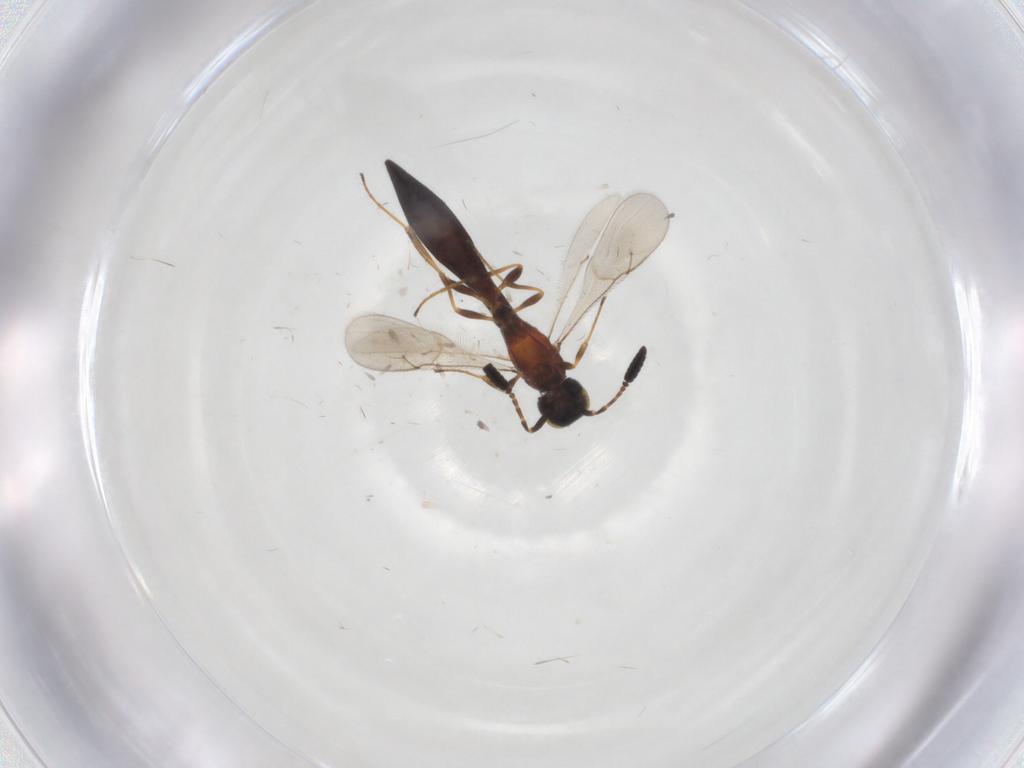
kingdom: Animalia
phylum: Arthropoda
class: Insecta
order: Hymenoptera
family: Scelionidae
